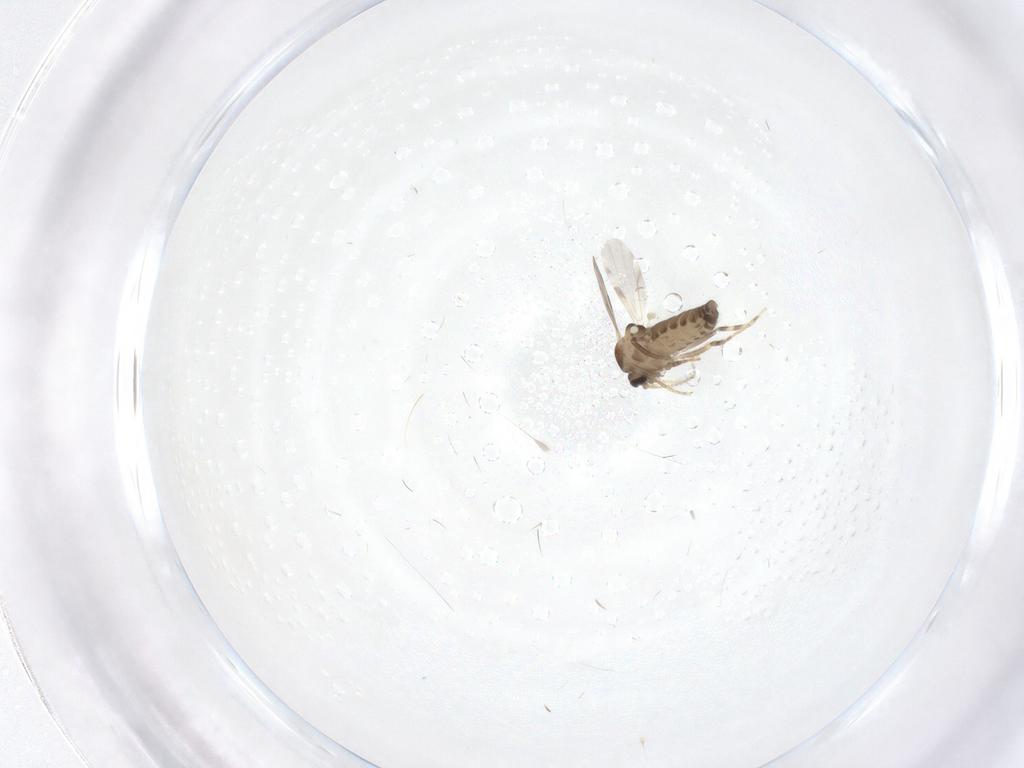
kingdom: Animalia
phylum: Arthropoda
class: Insecta
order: Diptera
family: Ceratopogonidae
